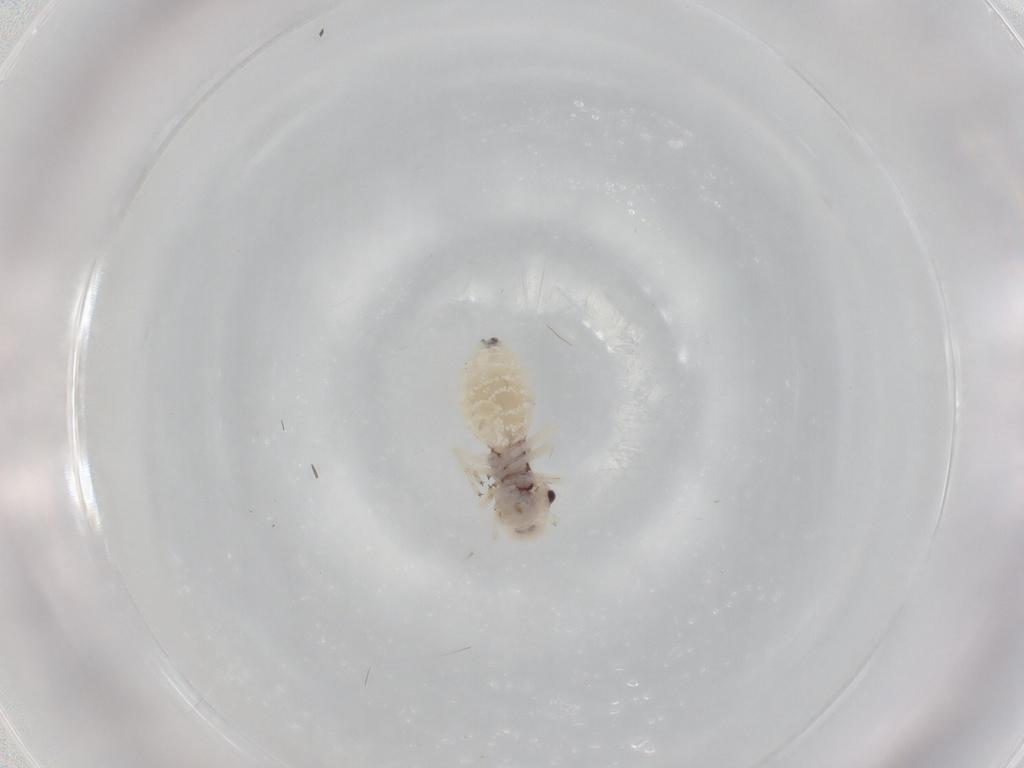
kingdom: Animalia
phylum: Arthropoda
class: Insecta
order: Psocodea
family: Amphipsocidae
